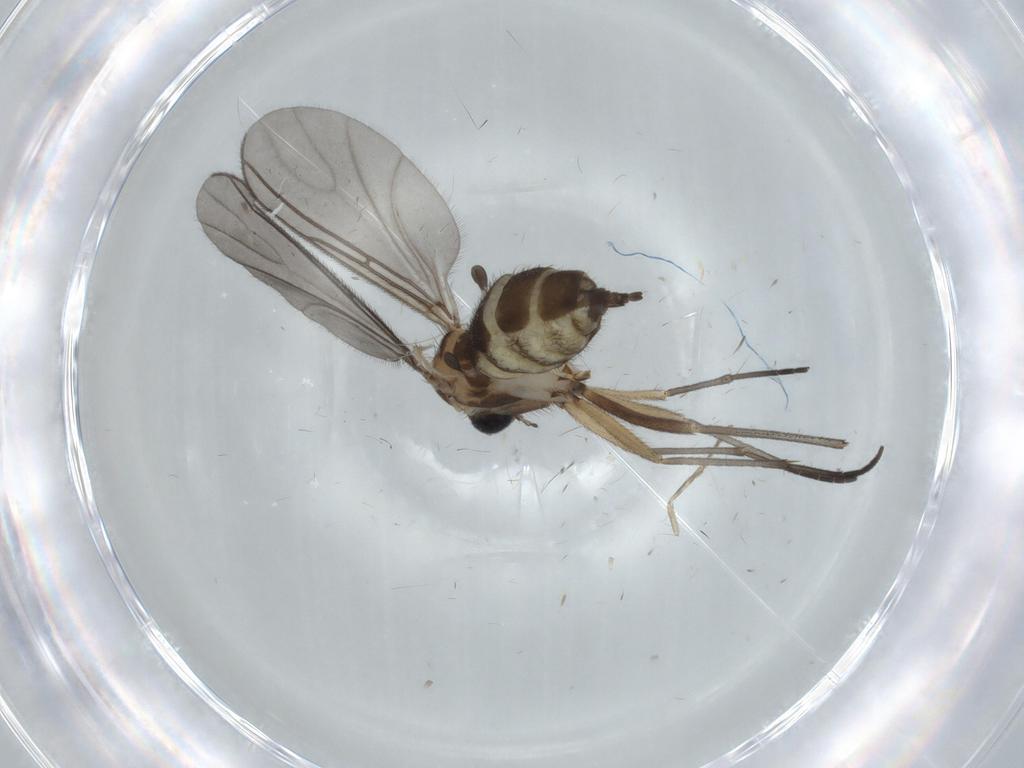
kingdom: Animalia
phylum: Arthropoda
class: Insecta
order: Diptera
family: Sciaridae
